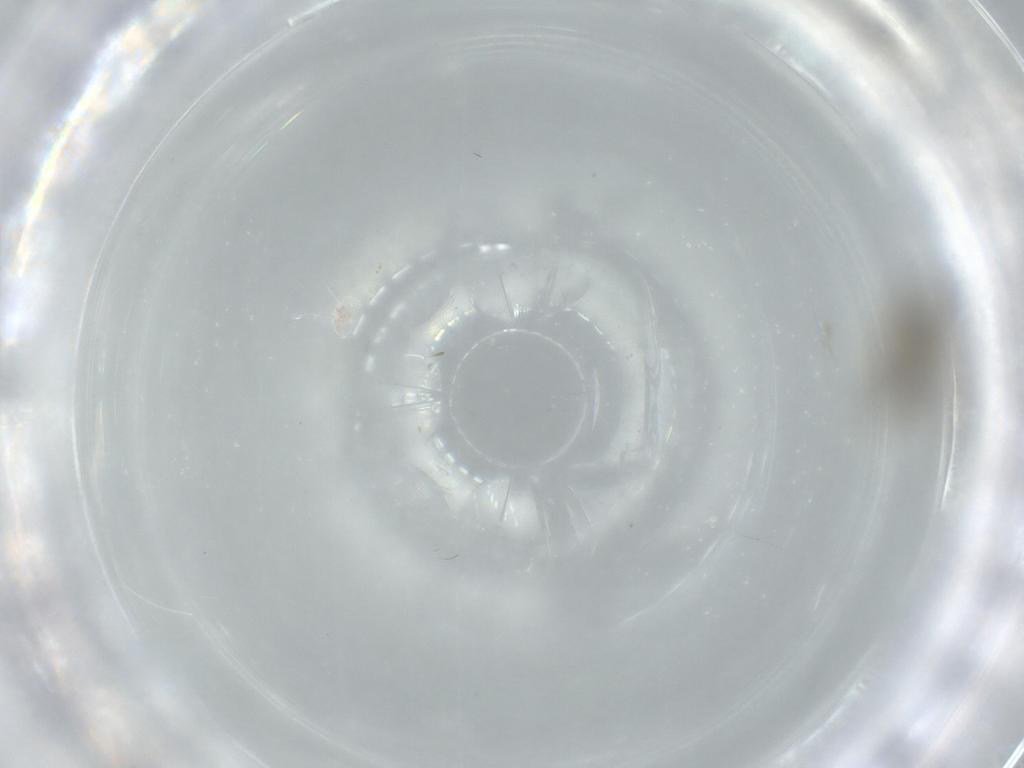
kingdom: Animalia
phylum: Arthropoda
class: Insecta
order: Diptera
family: Cecidomyiidae
